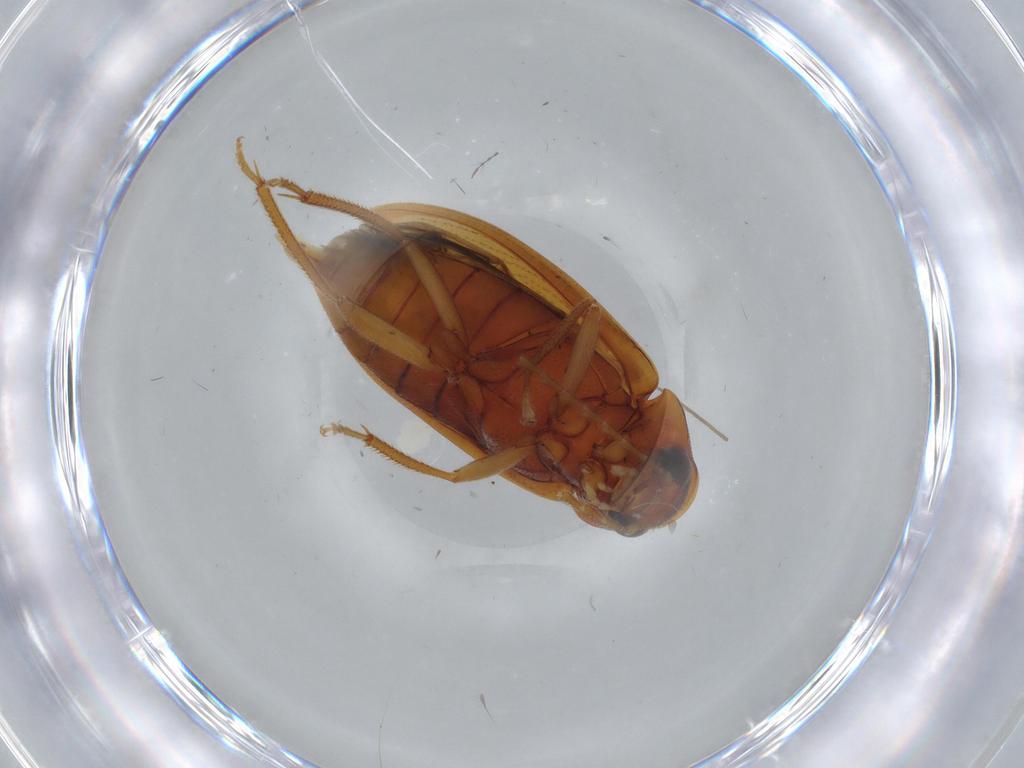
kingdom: Animalia
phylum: Arthropoda
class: Insecta
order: Coleoptera
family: Ptilodactylidae
